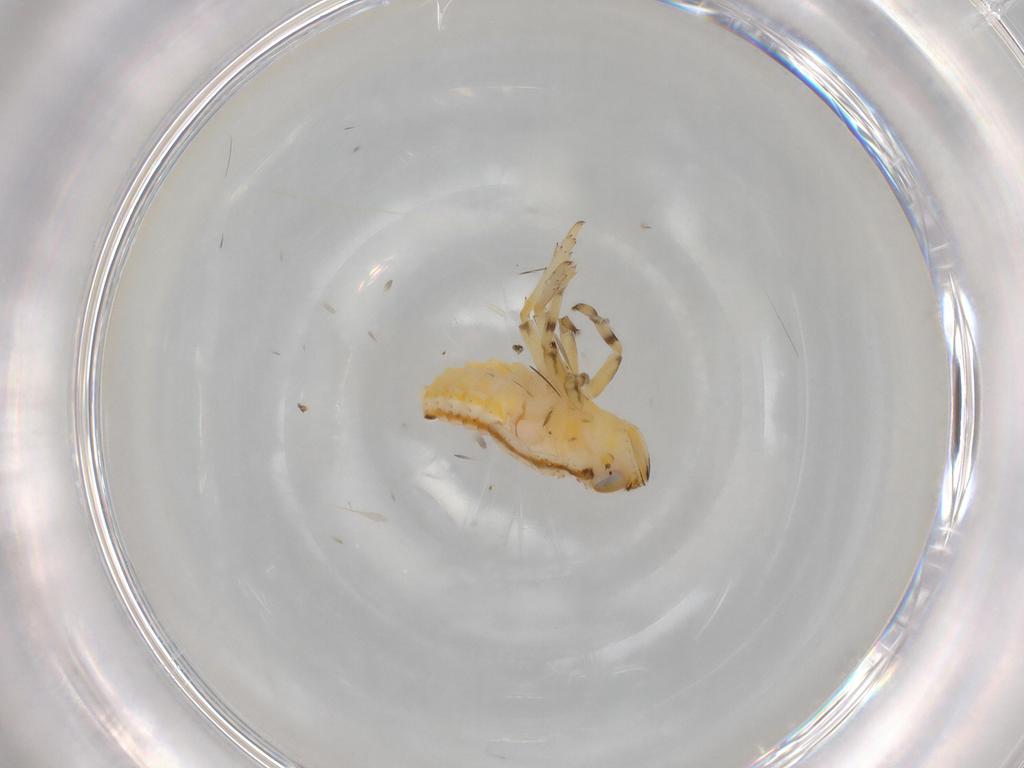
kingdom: Animalia
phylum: Arthropoda
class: Insecta
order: Hemiptera
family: Issidae
